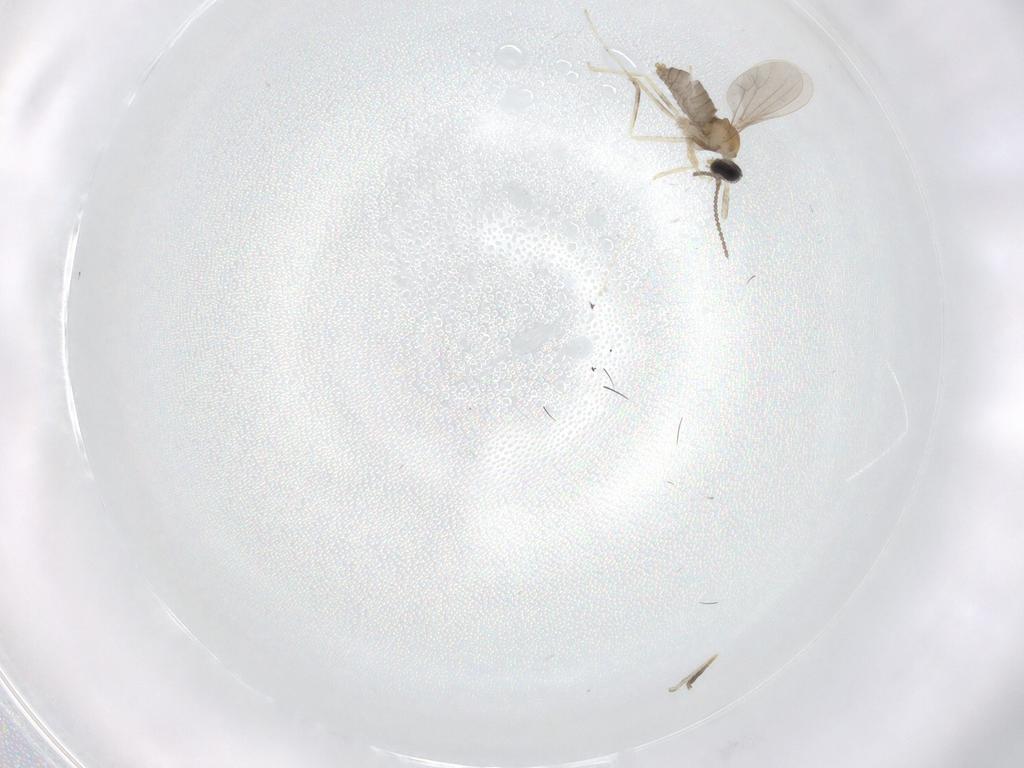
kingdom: Animalia
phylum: Arthropoda
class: Insecta
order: Diptera
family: Cecidomyiidae
